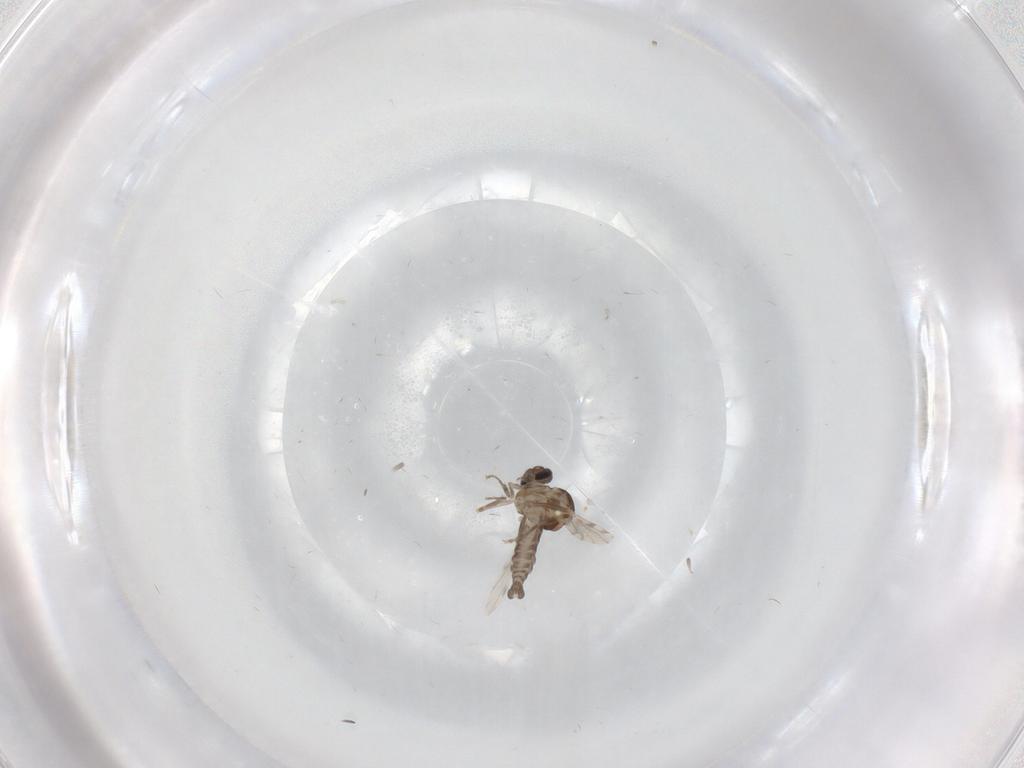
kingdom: Animalia
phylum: Arthropoda
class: Insecta
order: Diptera
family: Ceratopogonidae
